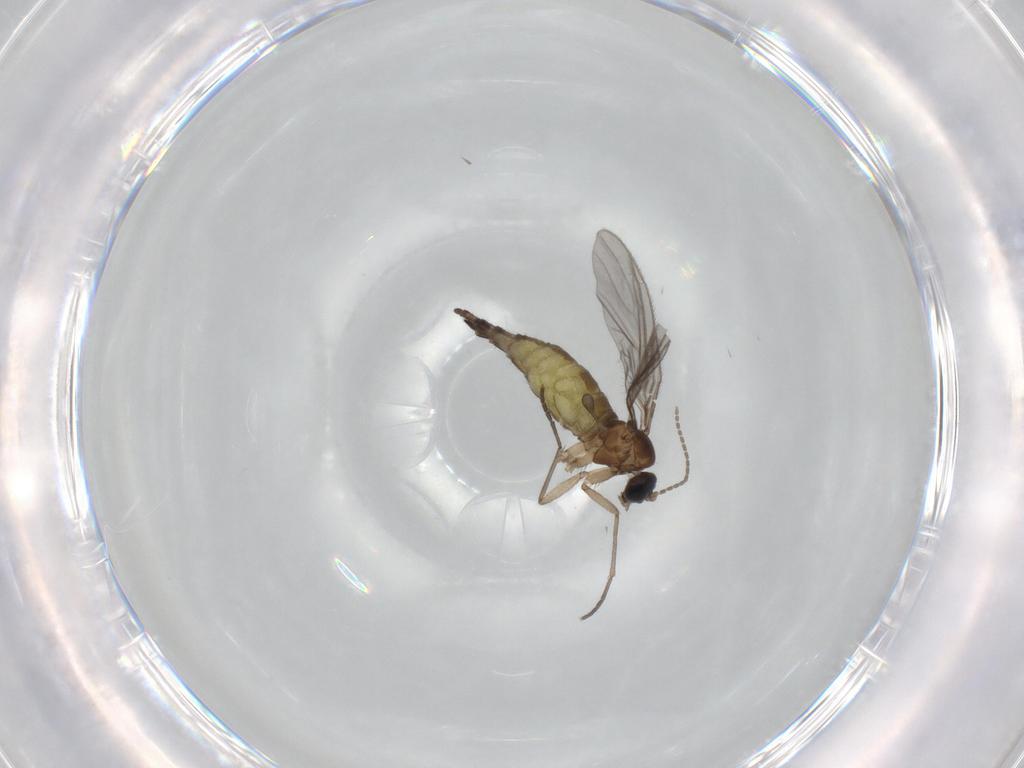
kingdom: Animalia
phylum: Arthropoda
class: Insecta
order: Diptera
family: Sciaridae
